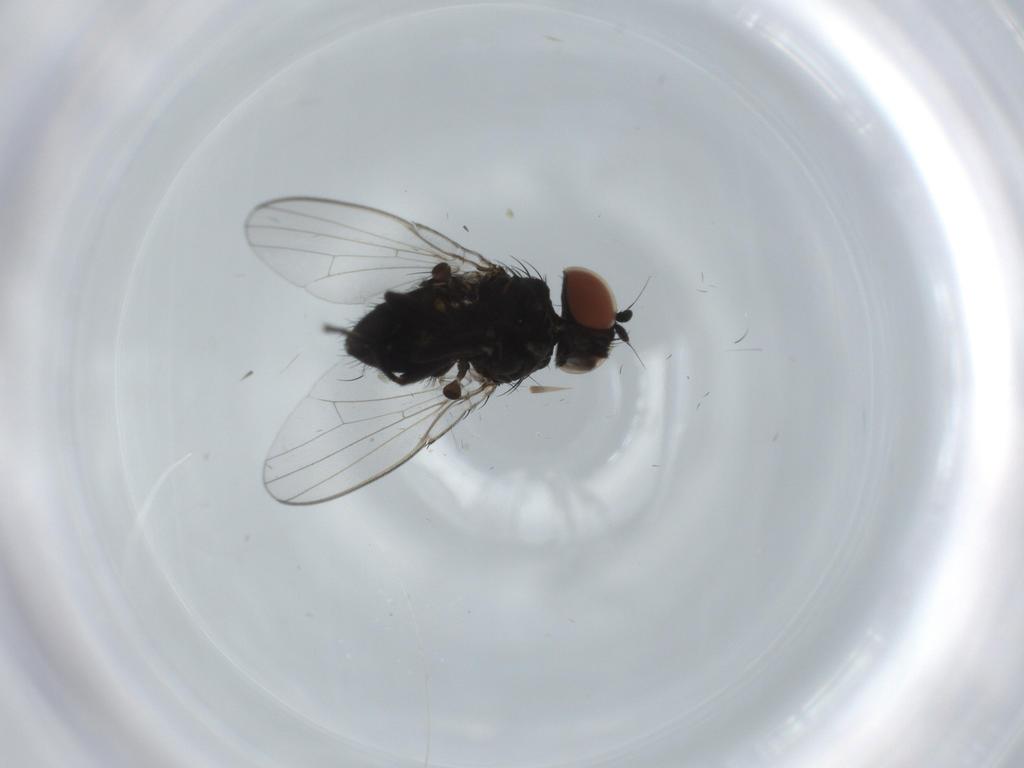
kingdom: Animalia
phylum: Arthropoda
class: Insecta
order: Diptera
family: Milichiidae
